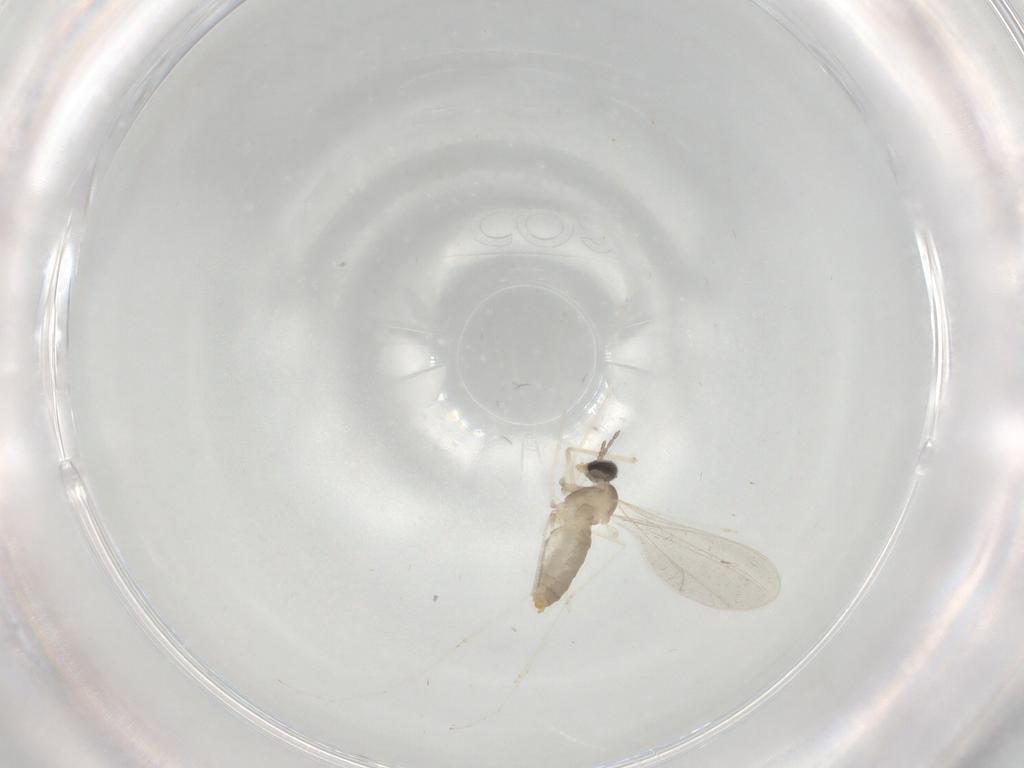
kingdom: Animalia
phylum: Arthropoda
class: Insecta
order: Diptera
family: Cecidomyiidae
